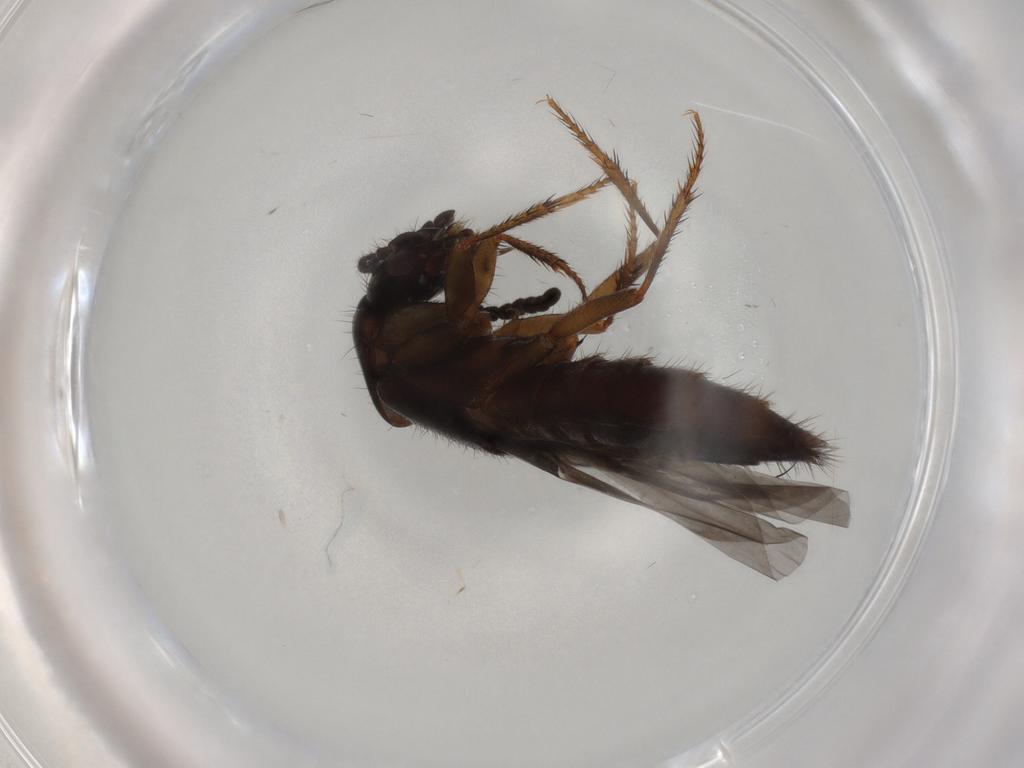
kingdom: Animalia
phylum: Arthropoda
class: Insecta
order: Coleoptera
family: Staphylinidae
